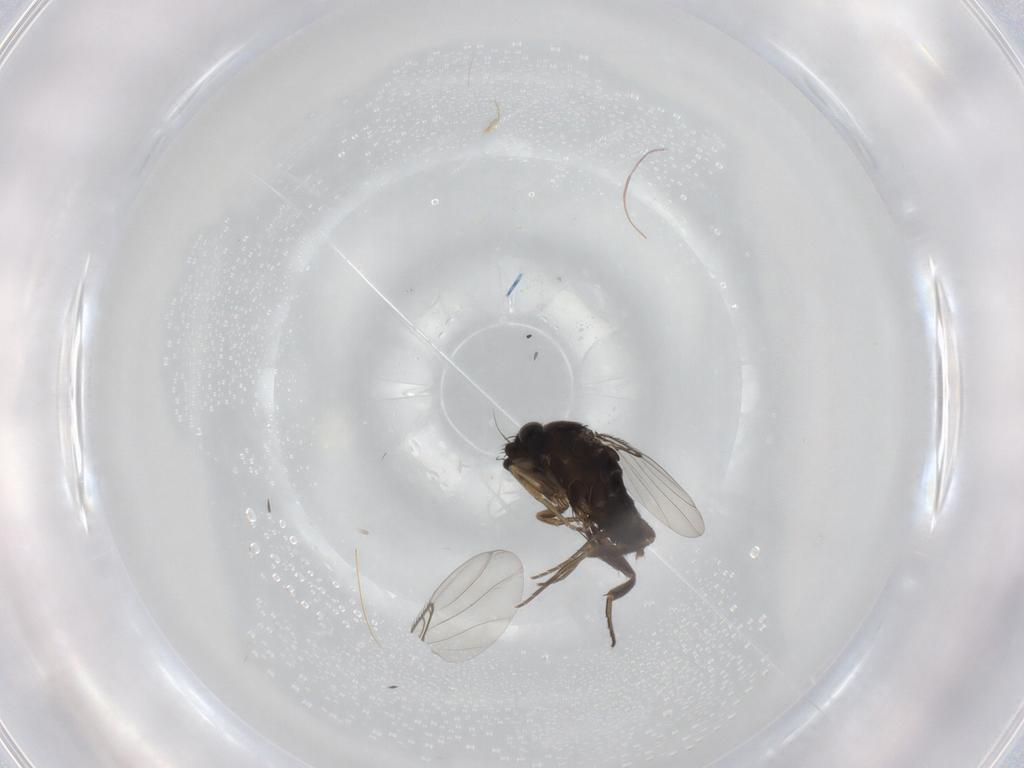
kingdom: Animalia
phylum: Arthropoda
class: Insecta
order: Diptera
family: Phoridae
